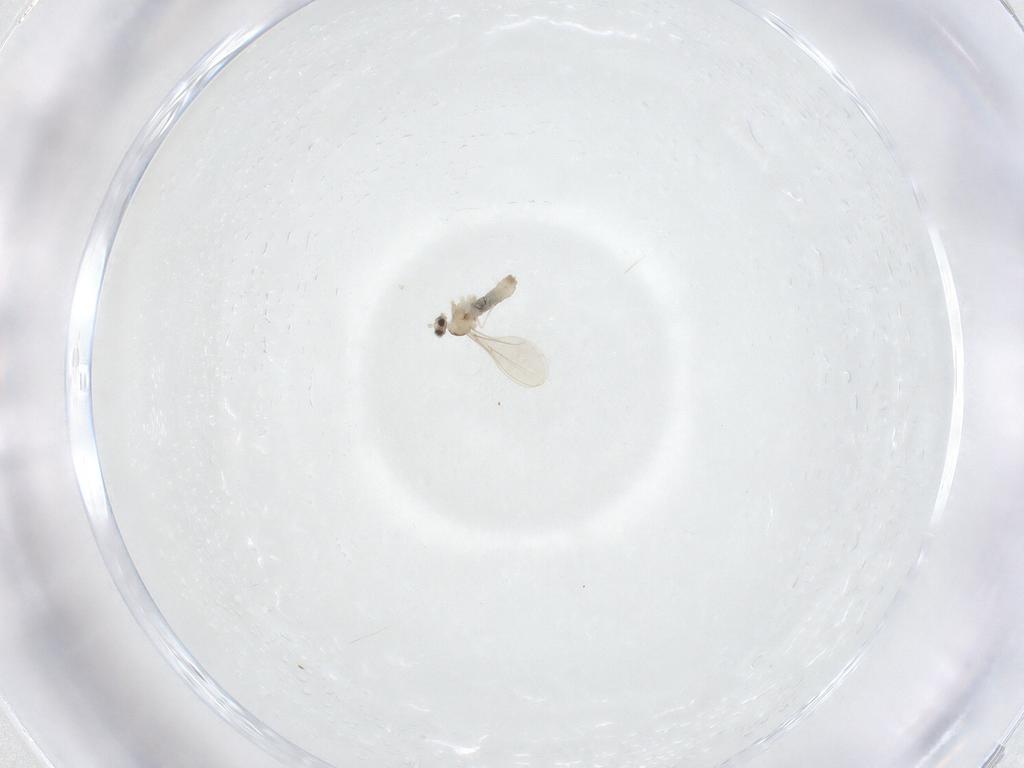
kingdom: Animalia
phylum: Arthropoda
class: Insecta
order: Diptera
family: Cecidomyiidae
